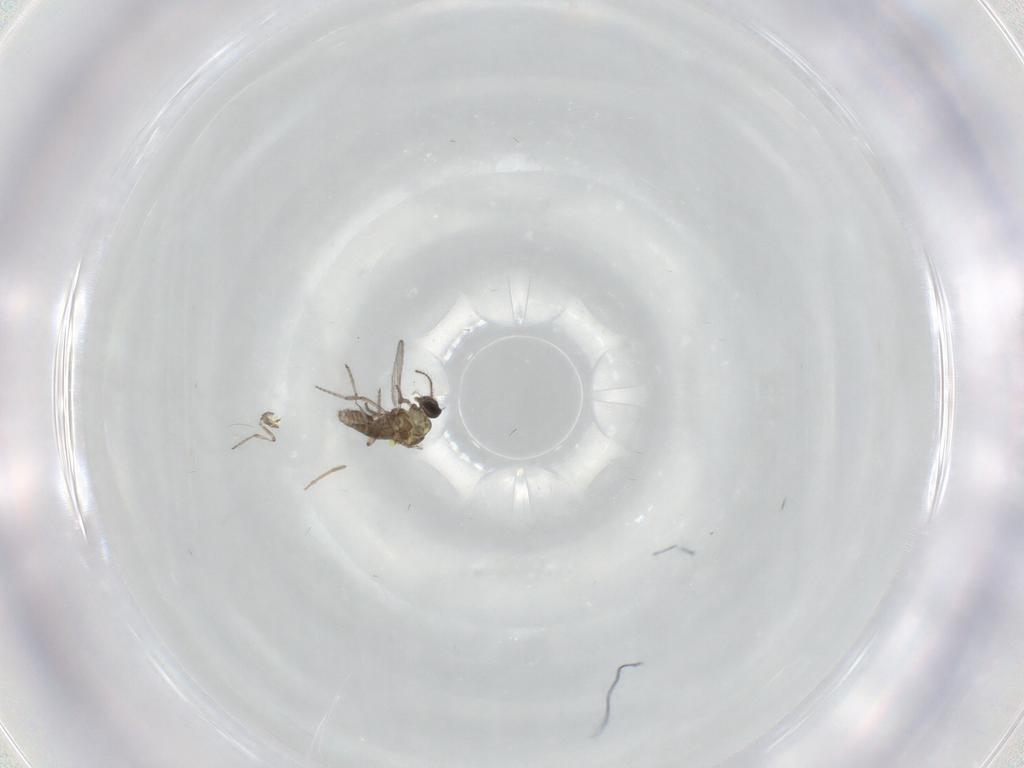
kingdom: Animalia
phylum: Arthropoda
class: Insecta
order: Diptera
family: Ceratopogonidae
